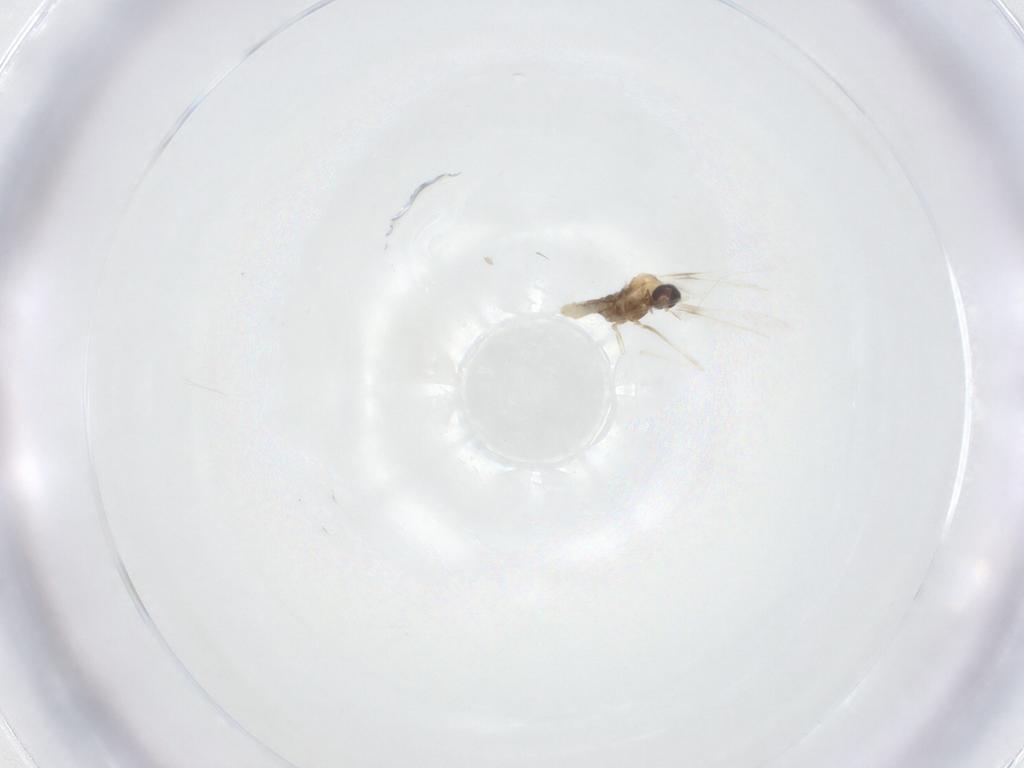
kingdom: Animalia
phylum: Arthropoda
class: Insecta
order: Diptera
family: Cecidomyiidae
